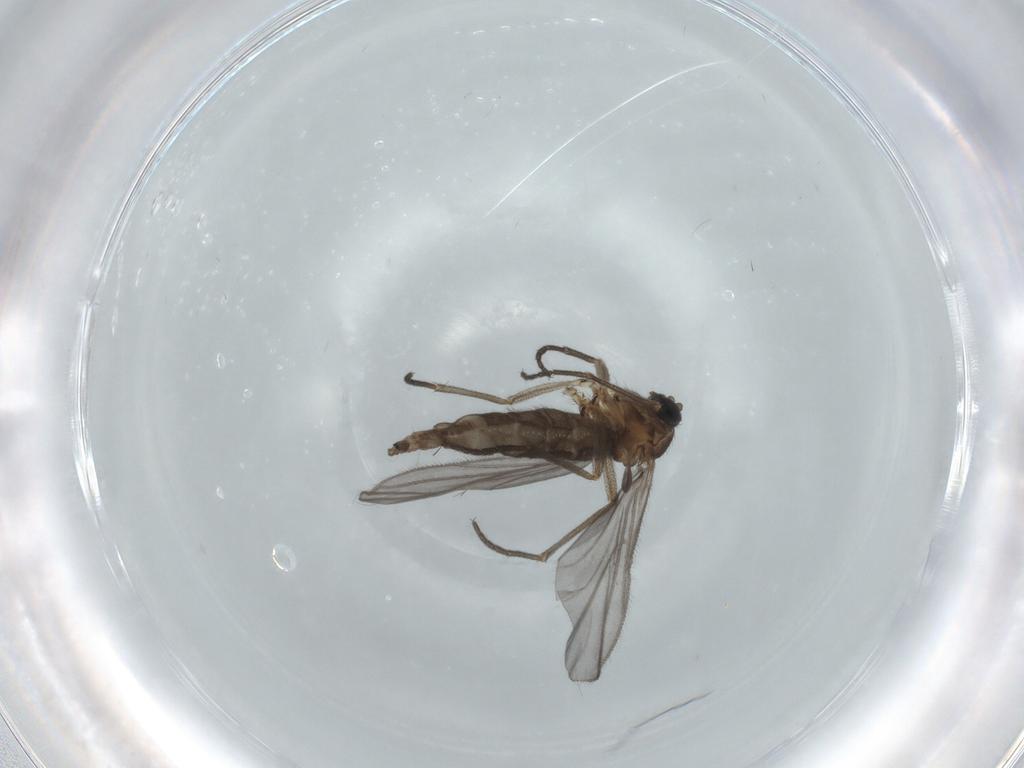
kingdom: Animalia
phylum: Arthropoda
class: Insecta
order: Diptera
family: Sciaridae
